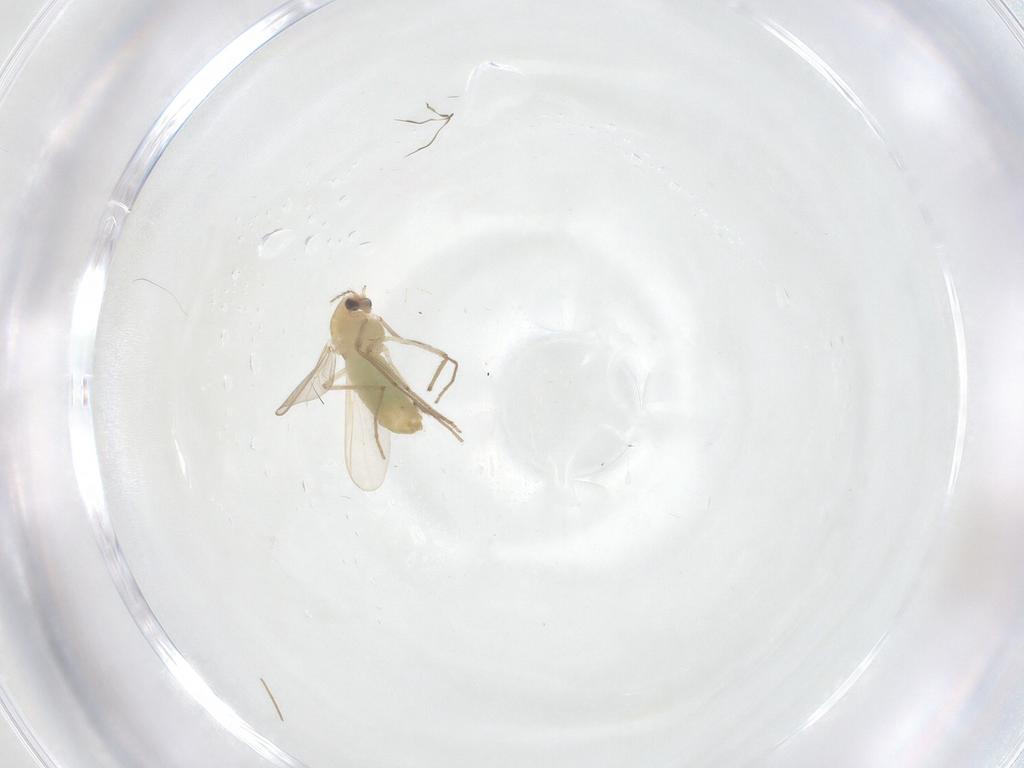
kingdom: Animalia
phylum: Arthropoda
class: Insecta
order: Diptera
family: Chironomidae
